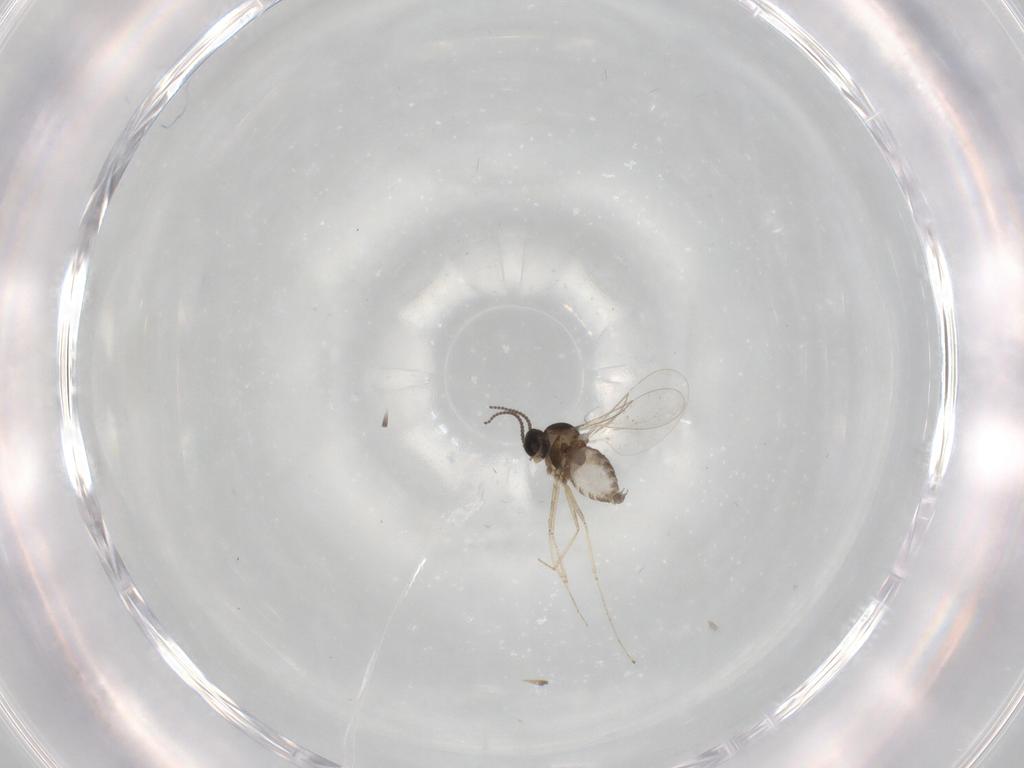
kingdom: Animalia
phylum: Arthropoda
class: Insecta
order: Diptera
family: Cecidomyiidae
